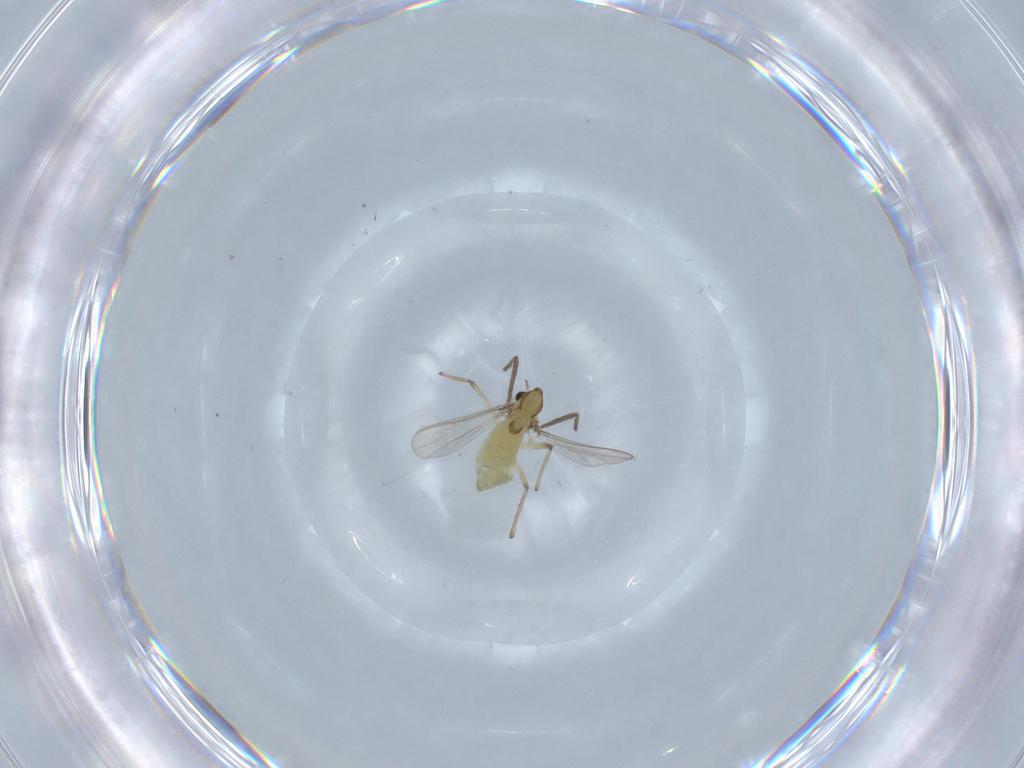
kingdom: Animalia
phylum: Arthropoda
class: Insecta
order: Diptera
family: Chironomidae
